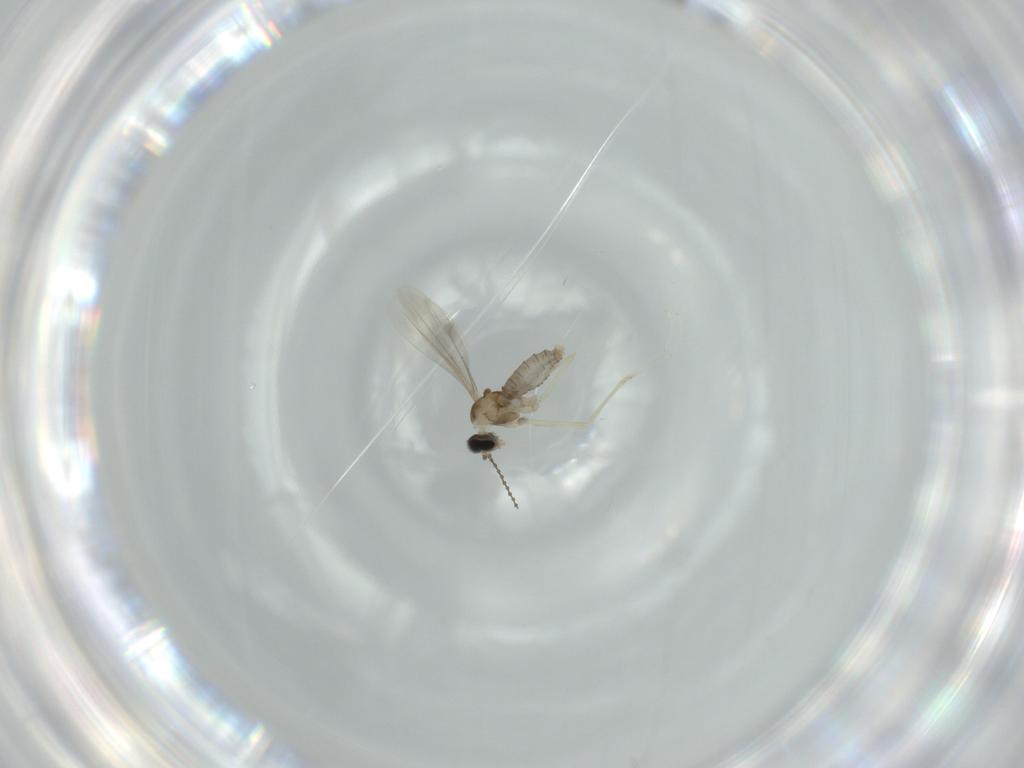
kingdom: Animalia
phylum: Arthropoda
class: Insecta
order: Diptera
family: Cecidomyiidae
